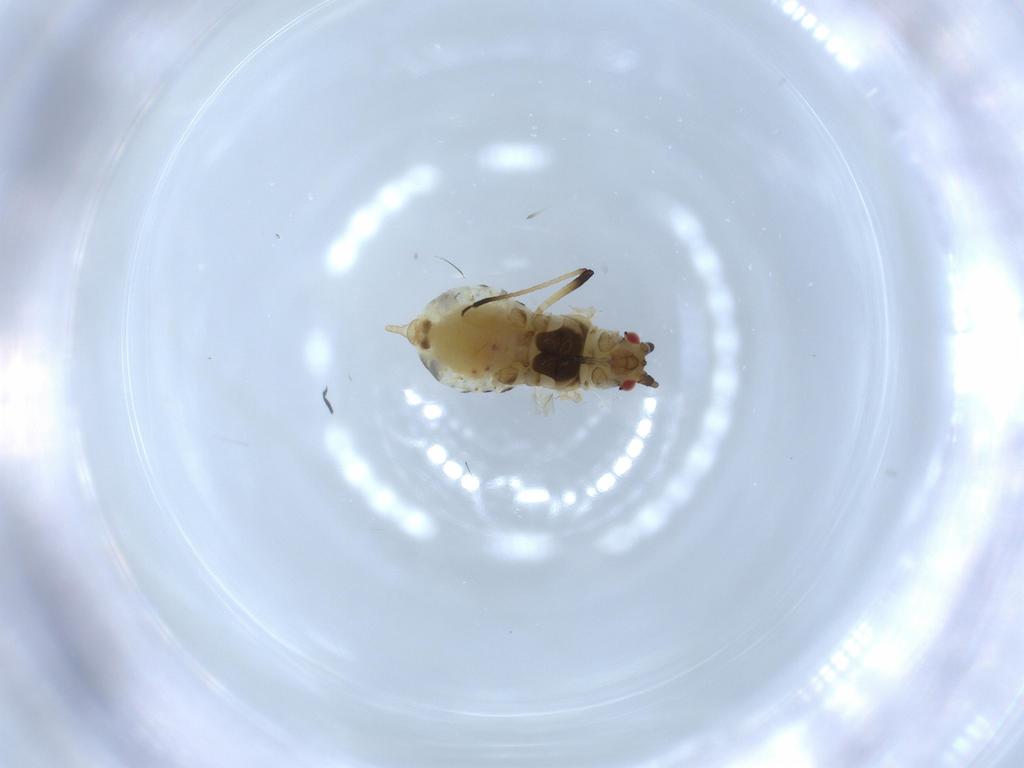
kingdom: Animalia
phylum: Arthropoda
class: Insecta
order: Hemiptera
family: Aphididae
